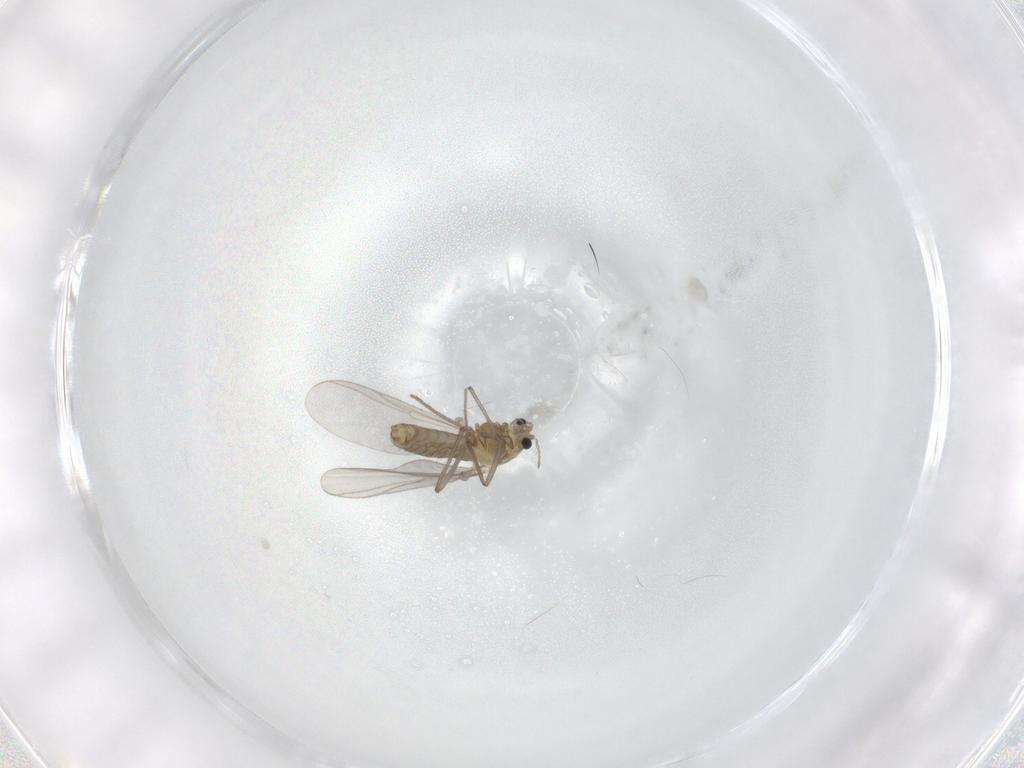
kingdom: Animalia
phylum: Arthropoda
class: Insecta
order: Diptera
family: Chironomidae
